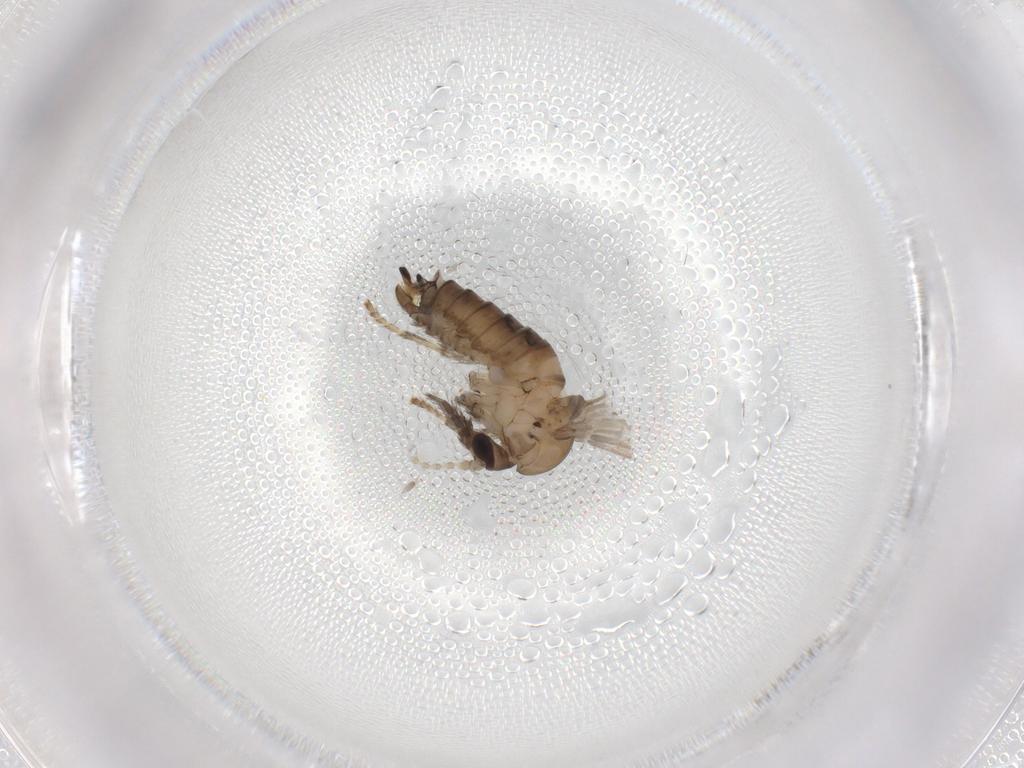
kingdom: Animalia
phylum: Arthropoda
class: Insecta
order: Diptera
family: Psychodidae
